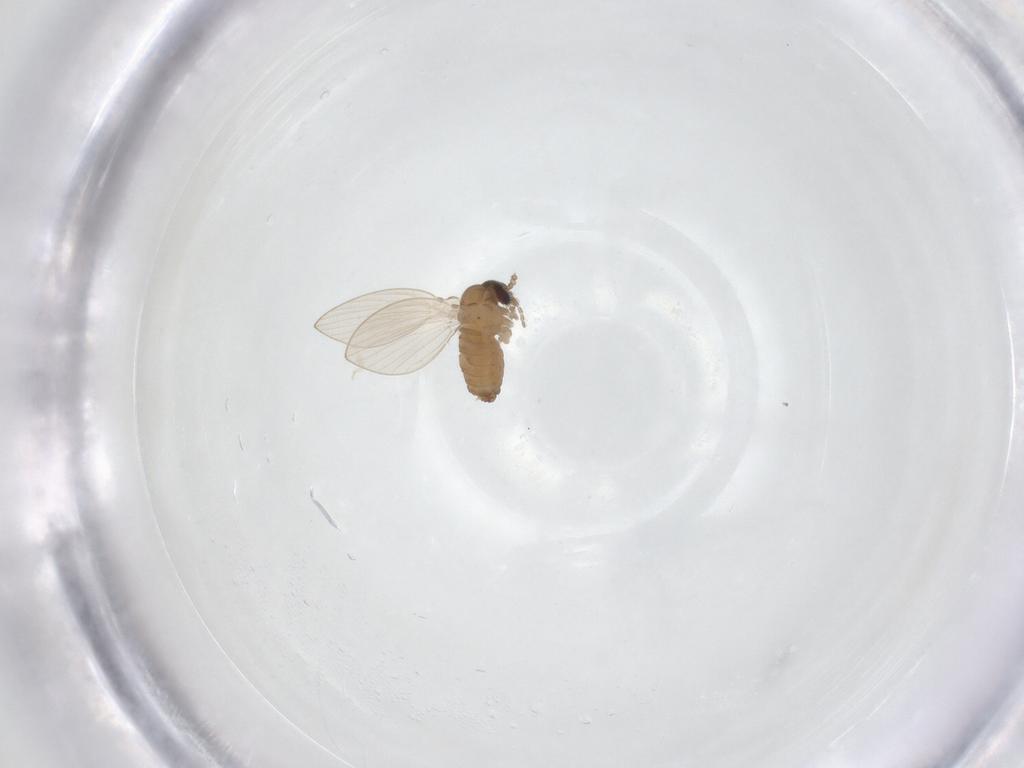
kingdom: Animalia
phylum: Arthropoda
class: Insecta
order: Diptera
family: Psychodidae
